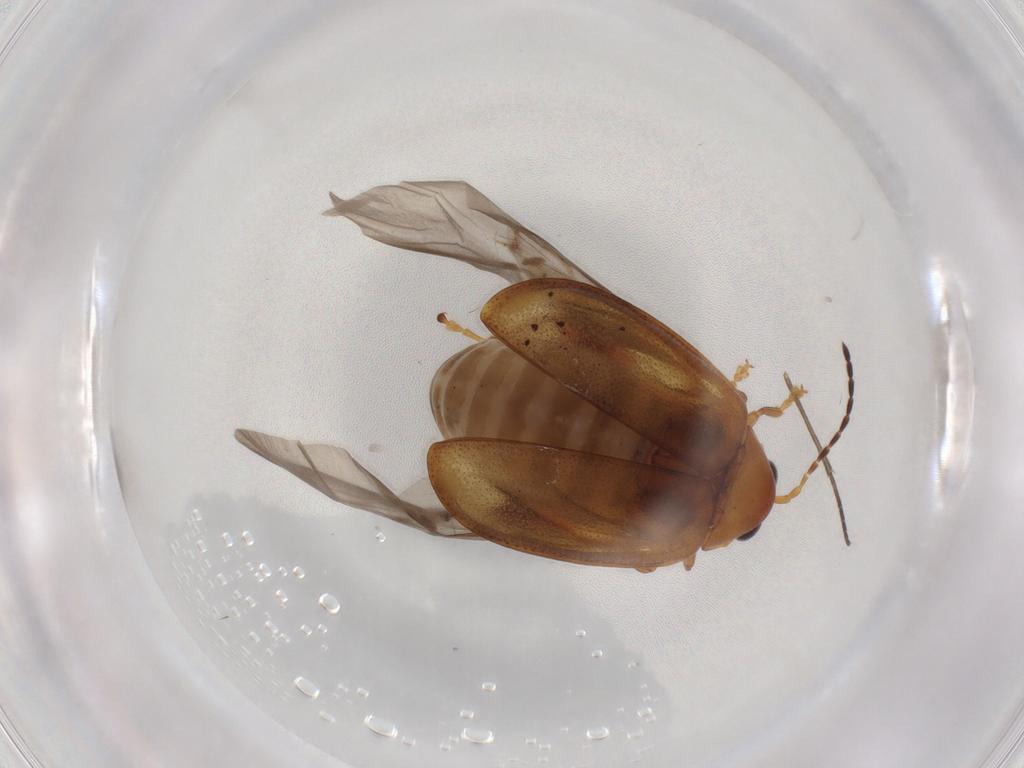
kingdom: Animalia
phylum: Arthropoda
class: Insecta
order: Coleoptera
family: Chrysomelidae
